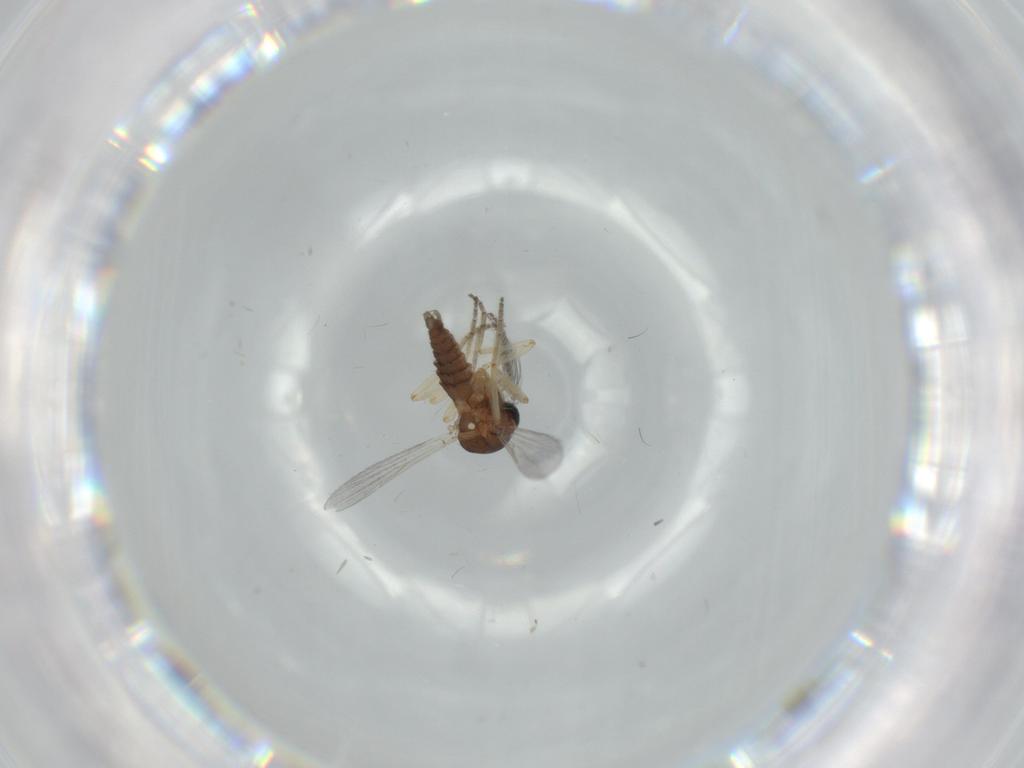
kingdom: Animalia
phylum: Arthropoda
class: Insecta
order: Diptera
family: Ceratopogonidae
